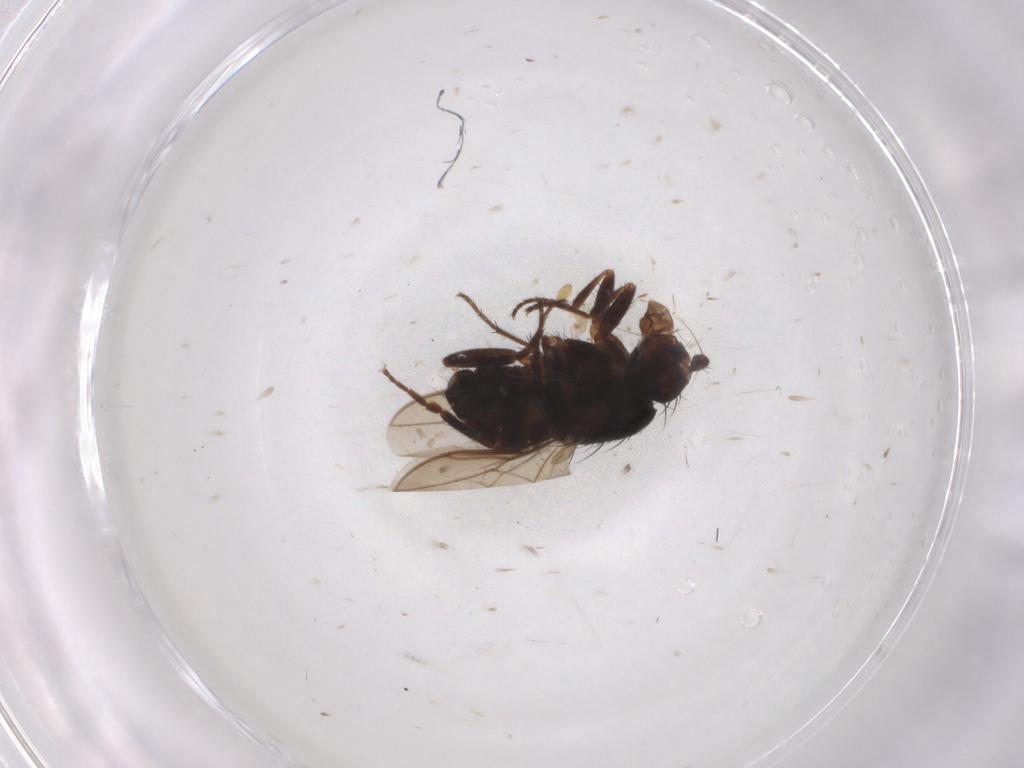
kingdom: Animalia
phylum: Arthropoda
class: Insecta
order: Diptera
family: Sphaeroceridae
